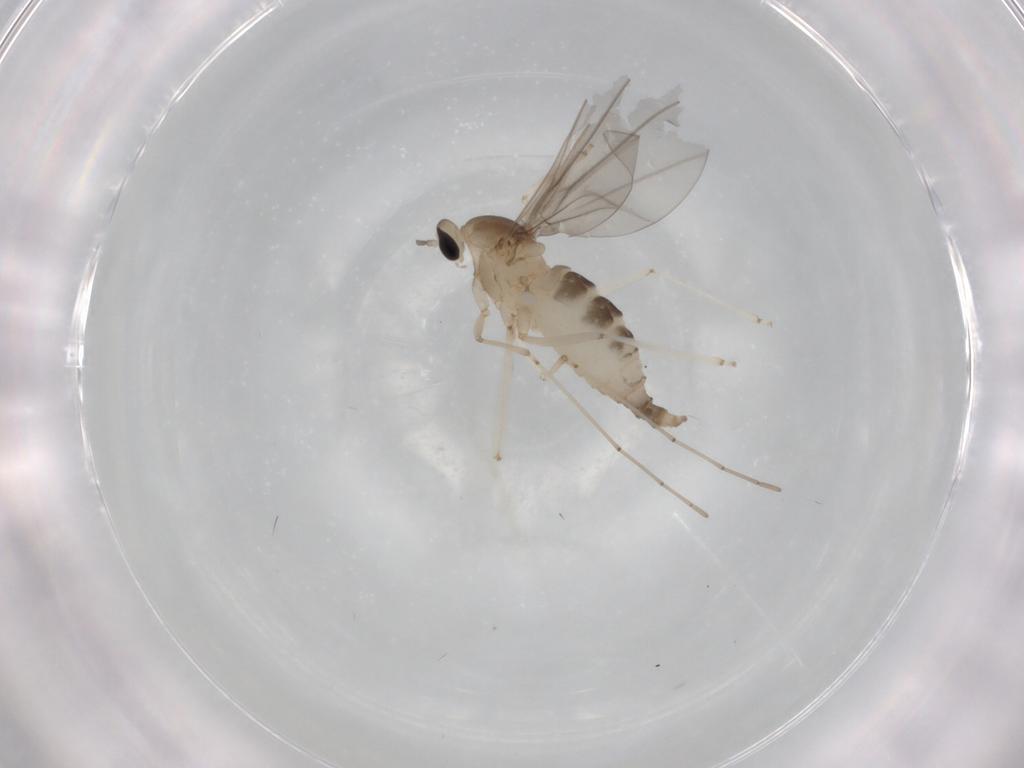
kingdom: Animalia
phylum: Arthropoda
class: Insecta
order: Diptera
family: Cecidomyiidae
